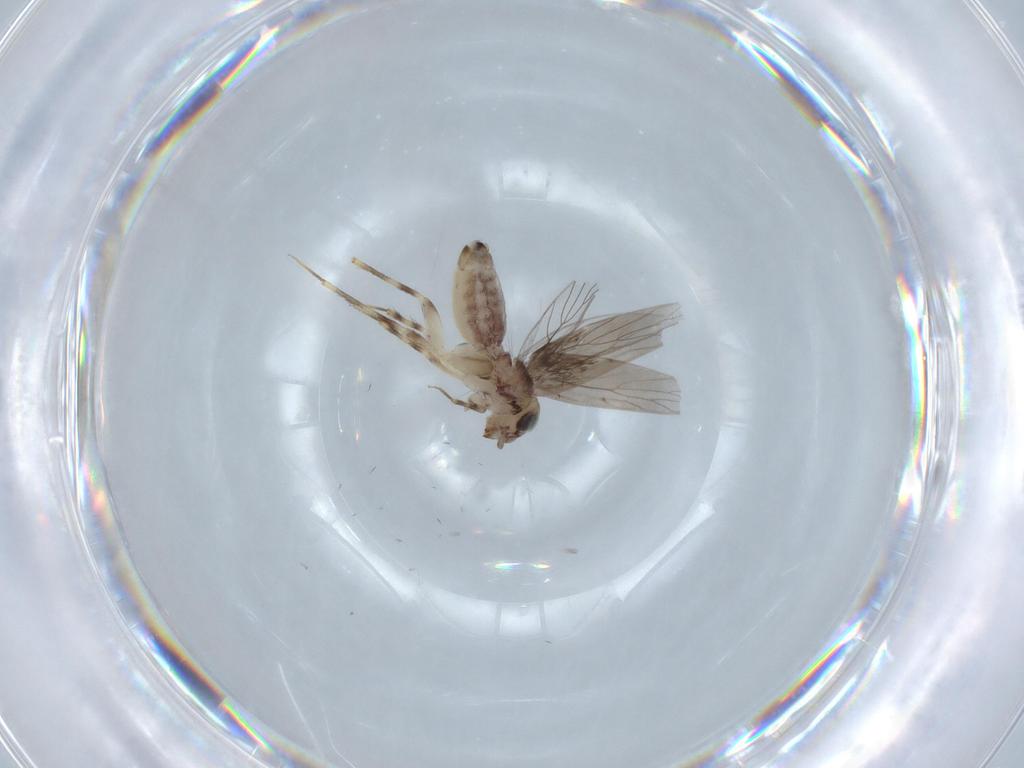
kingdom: Animalia
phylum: Arthropoda
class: Insecta
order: Psocodea
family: Lepidopsocidae
